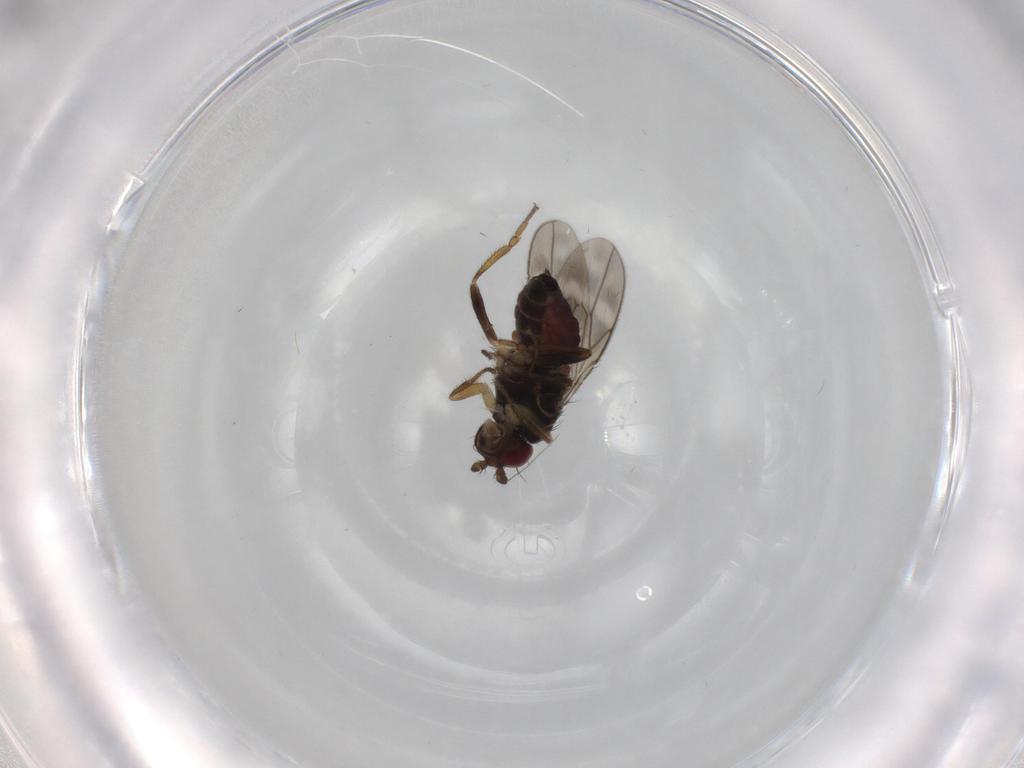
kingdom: Animalia
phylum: Arthropoda
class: Insecta
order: Diptera
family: Sphaeroceridae
